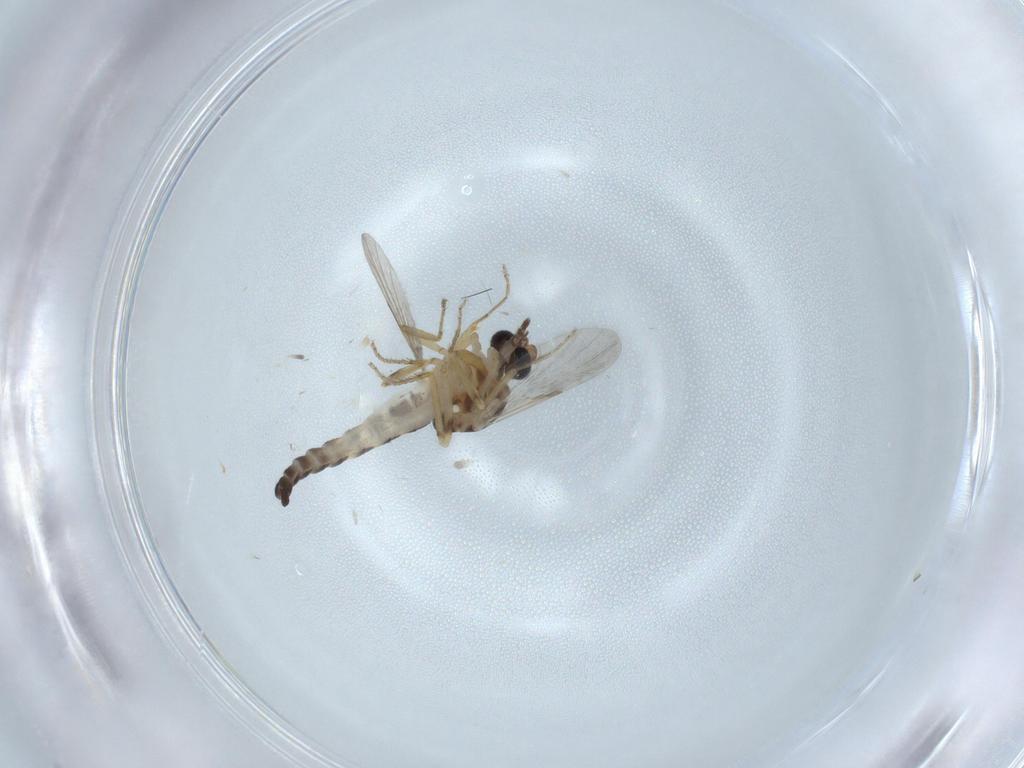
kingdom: Animalia
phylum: Arthropoda
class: Insecta
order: Diptera
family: Ceratopogonidae
